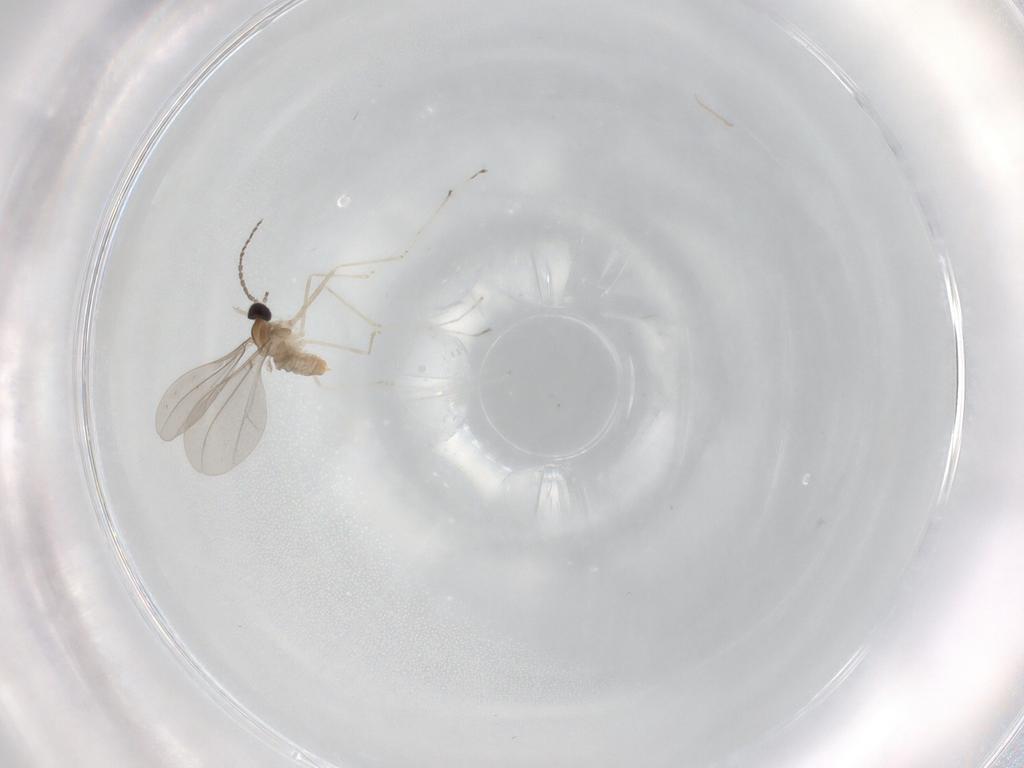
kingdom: Animalia
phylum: Arthropoda
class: Insecta
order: Diptera
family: Cecidomyiidae
